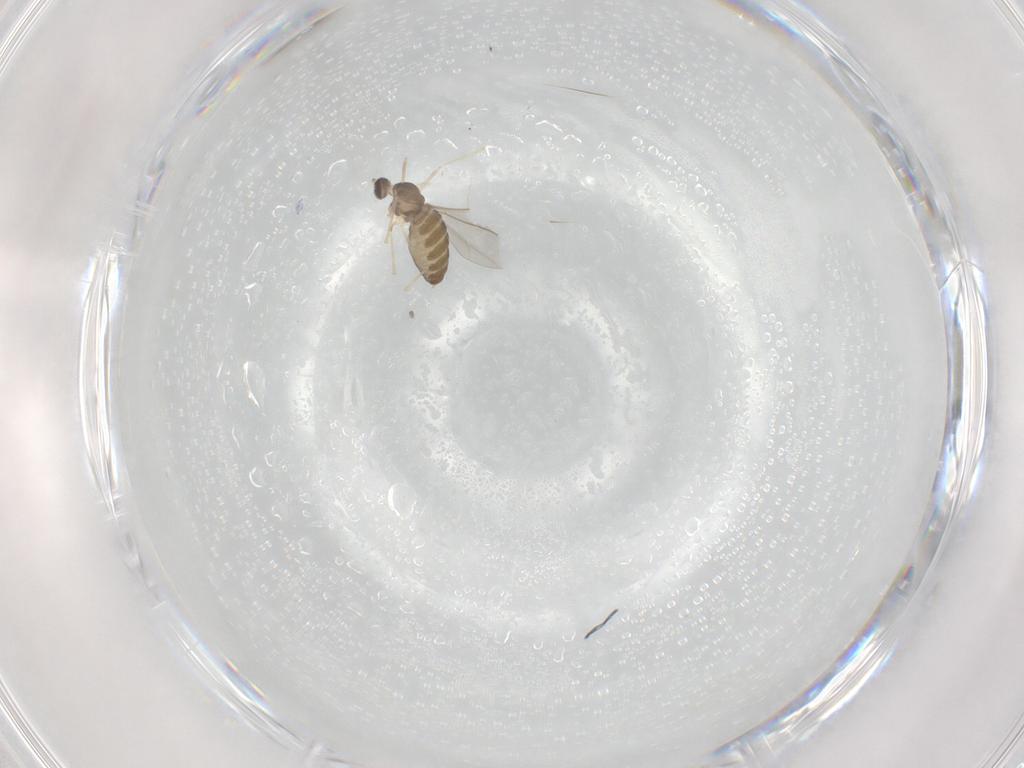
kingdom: Animalia
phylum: Arthropoda
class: Insecta
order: Diptera
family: Cecidomyiidae
